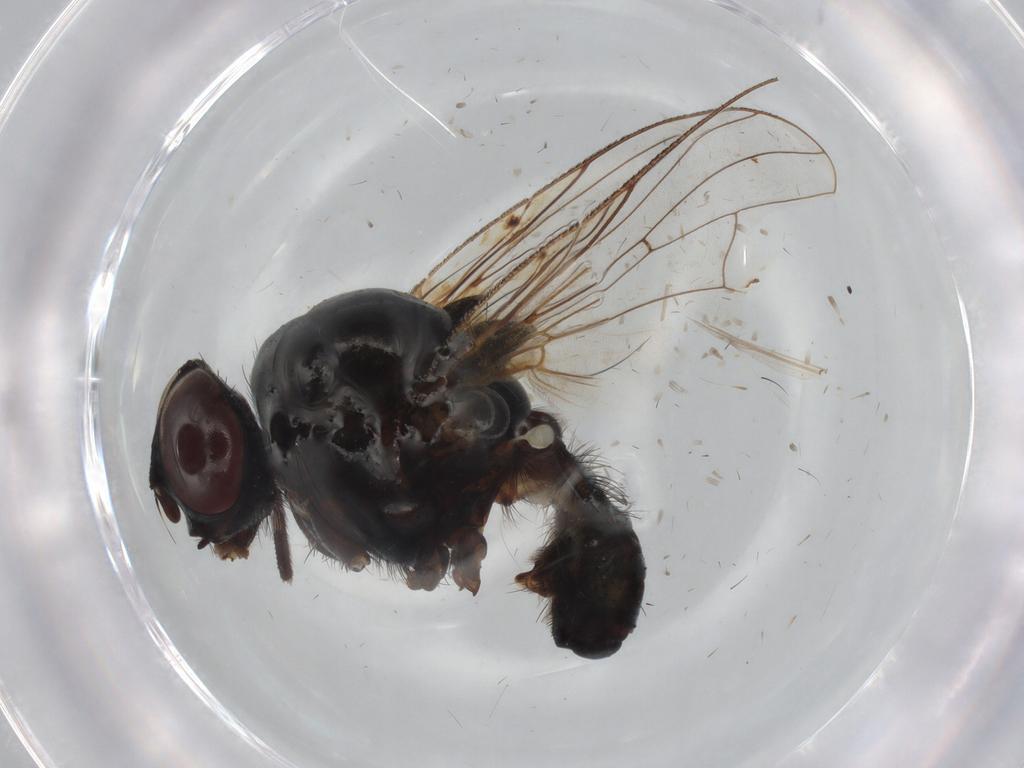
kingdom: Animalia
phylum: Arthropoda
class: Insecta
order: Diptera
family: Anthomyiidae
